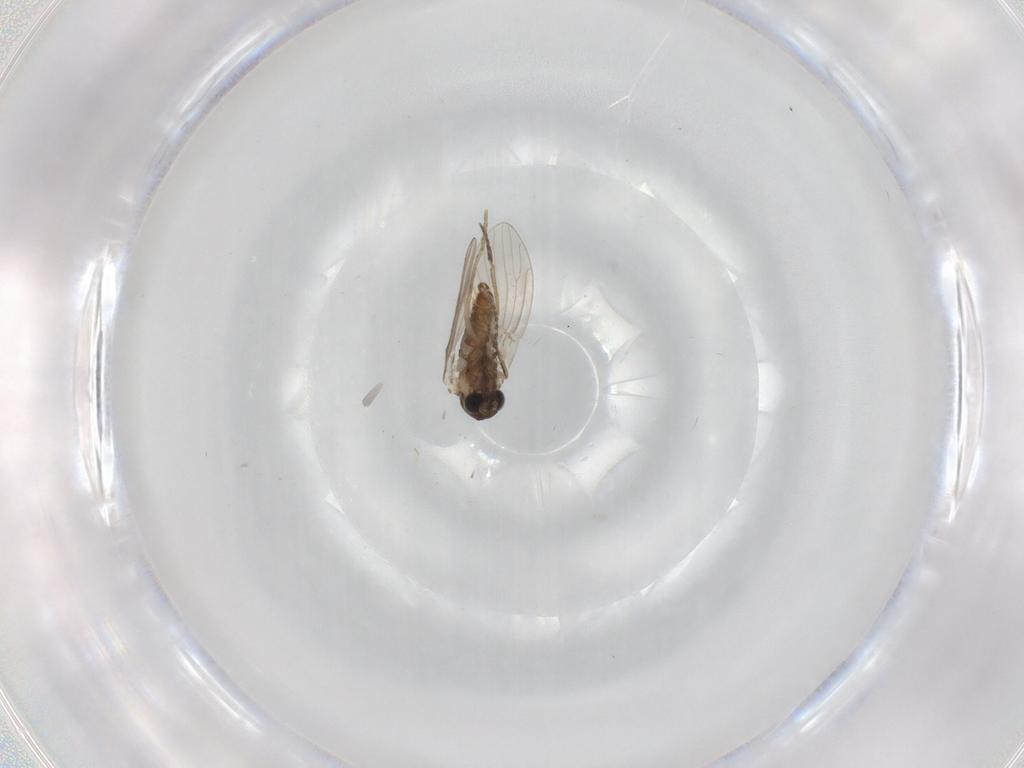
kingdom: Animalia
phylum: Arthropoda
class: Insecta
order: Diptera
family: Psychodidae
